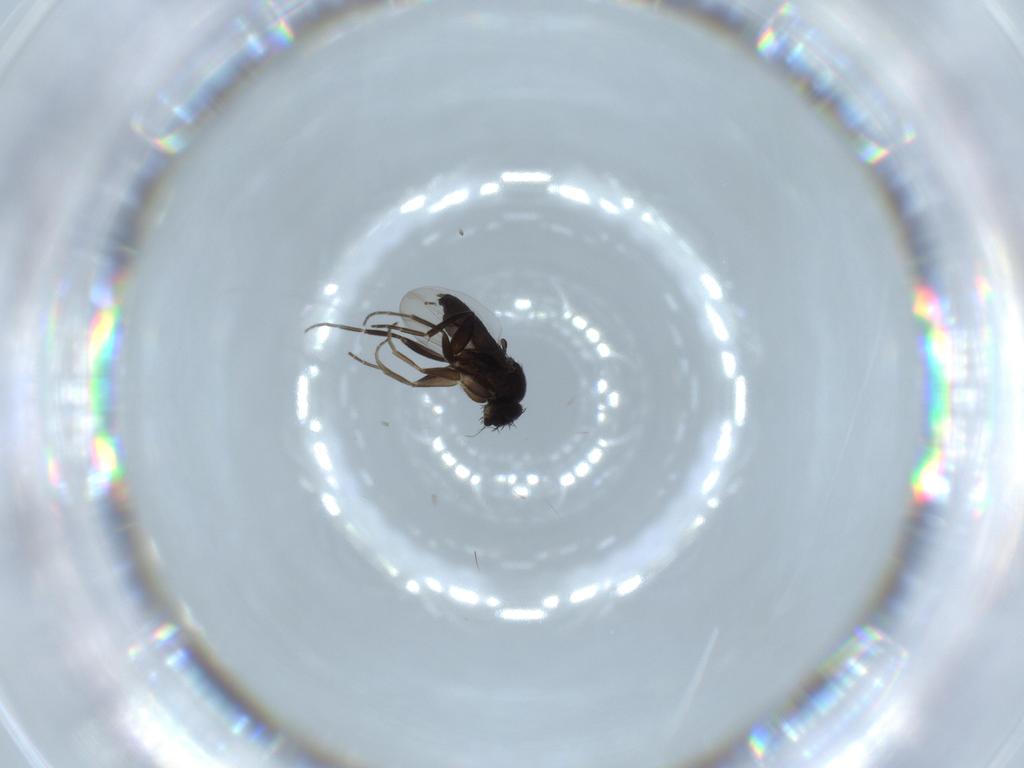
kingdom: Animalia
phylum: Arthropoda
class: Insecta
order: Diptera
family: Phoridae
